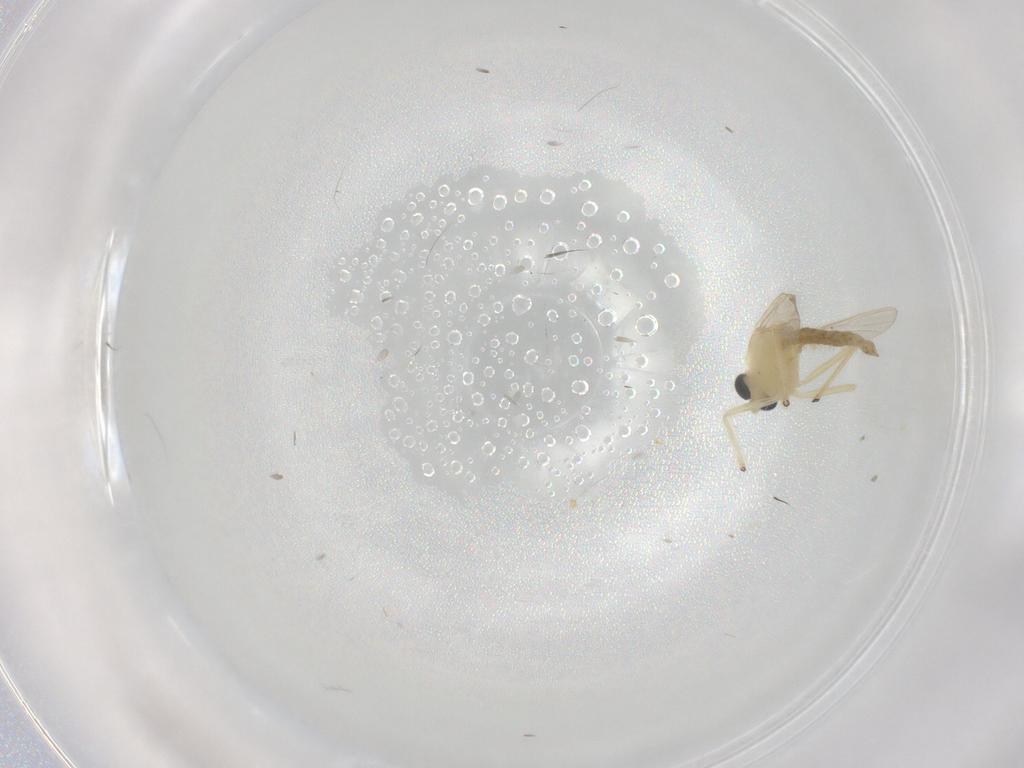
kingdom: Animalia
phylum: Arthropoda
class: Insecta
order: Diptera
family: Chironomidae
